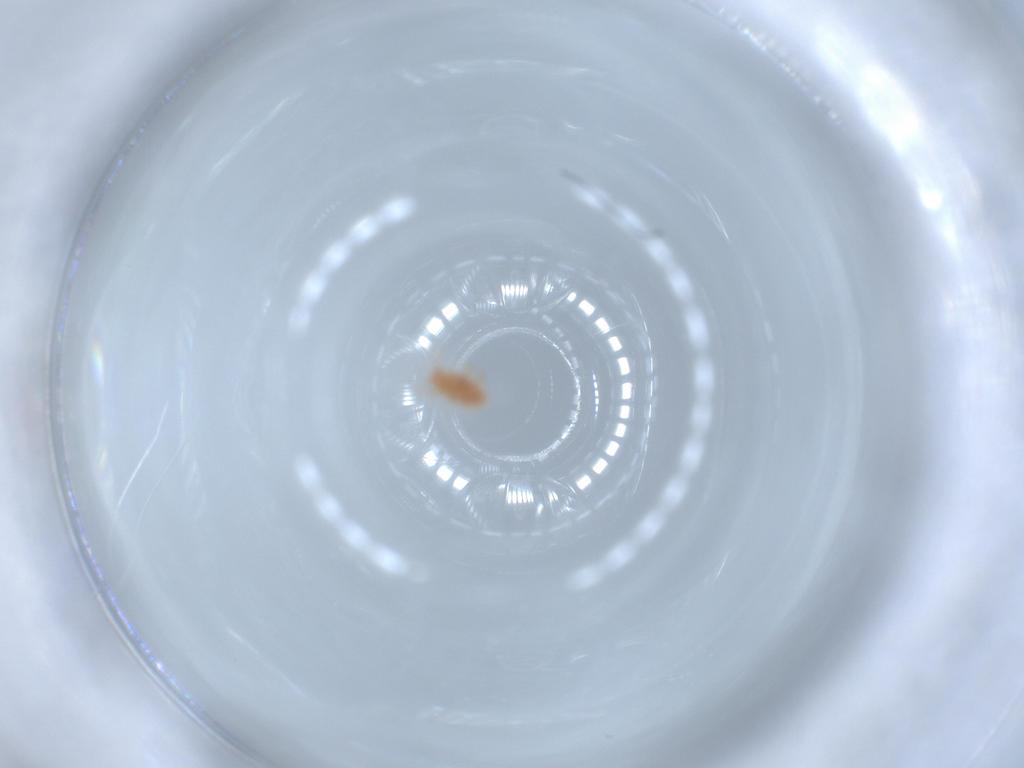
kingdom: Animalia
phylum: Arthropoda
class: Insecta
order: Diptera
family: Psychodidae
